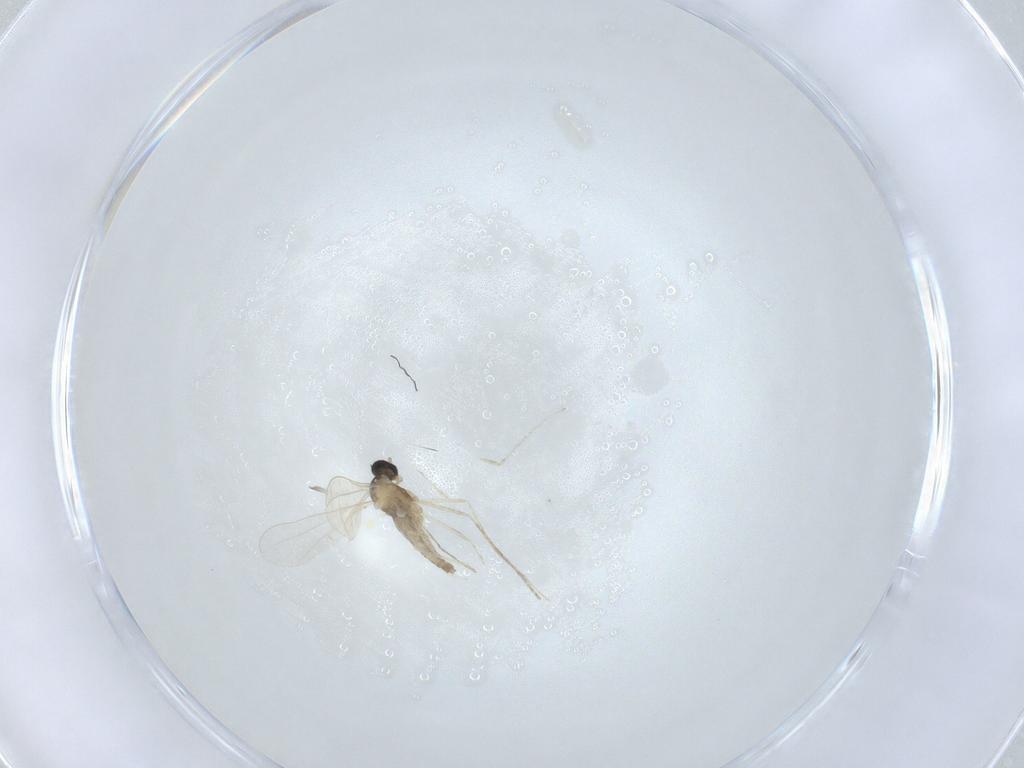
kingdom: Animalia
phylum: Arthropoda
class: Insecta
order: Diptera
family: Cecidomyiidae
